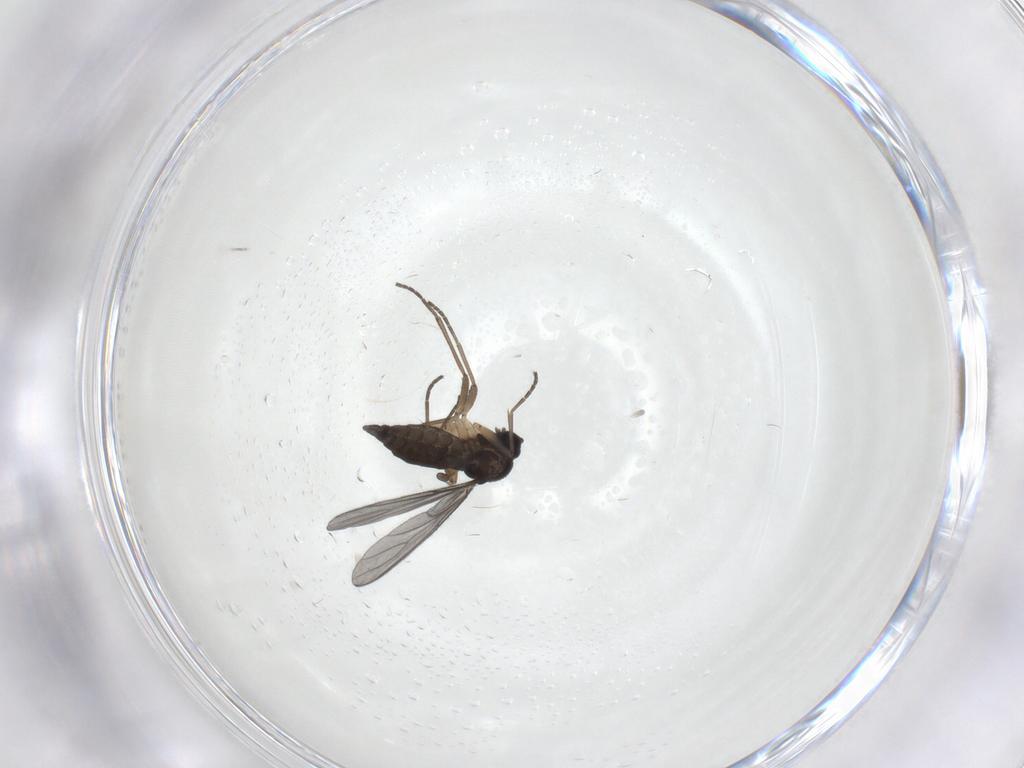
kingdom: Animalia
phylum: Arthropoda
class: Insecta
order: Diptera
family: Sciaridae
